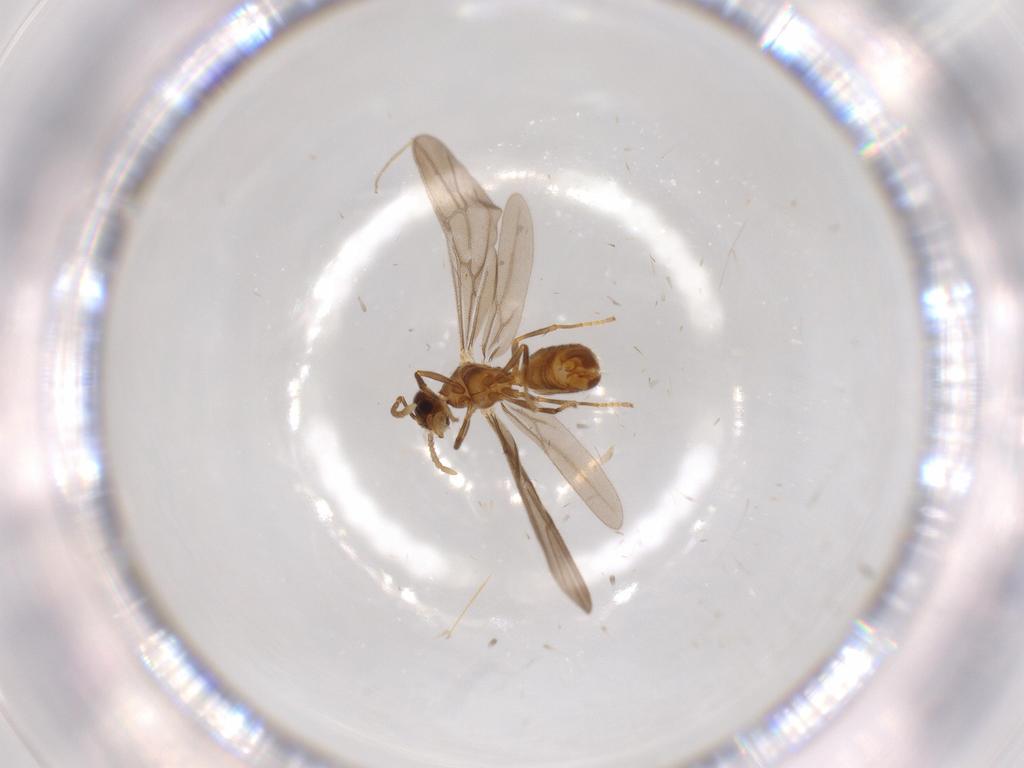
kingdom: Animalia
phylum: Arthropoda
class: Insecta
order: Hymenoptera
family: Formicidae
